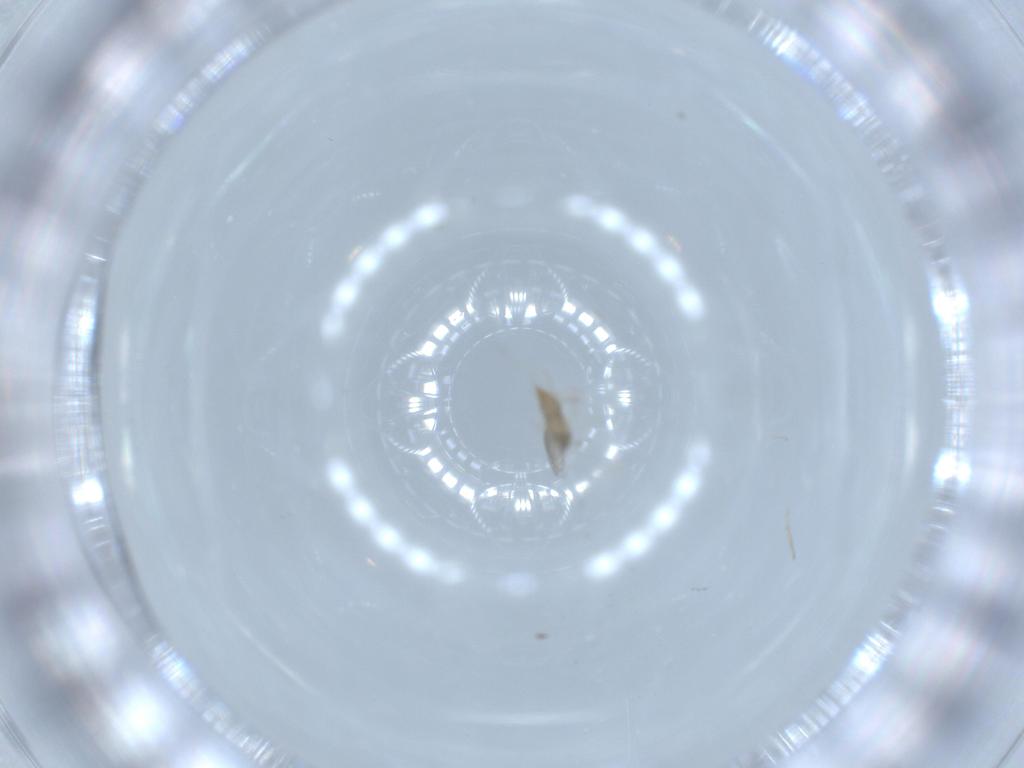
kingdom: Animalia
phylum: Arthropoda
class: Insecta
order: Diptera
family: Cecidomyiidae
